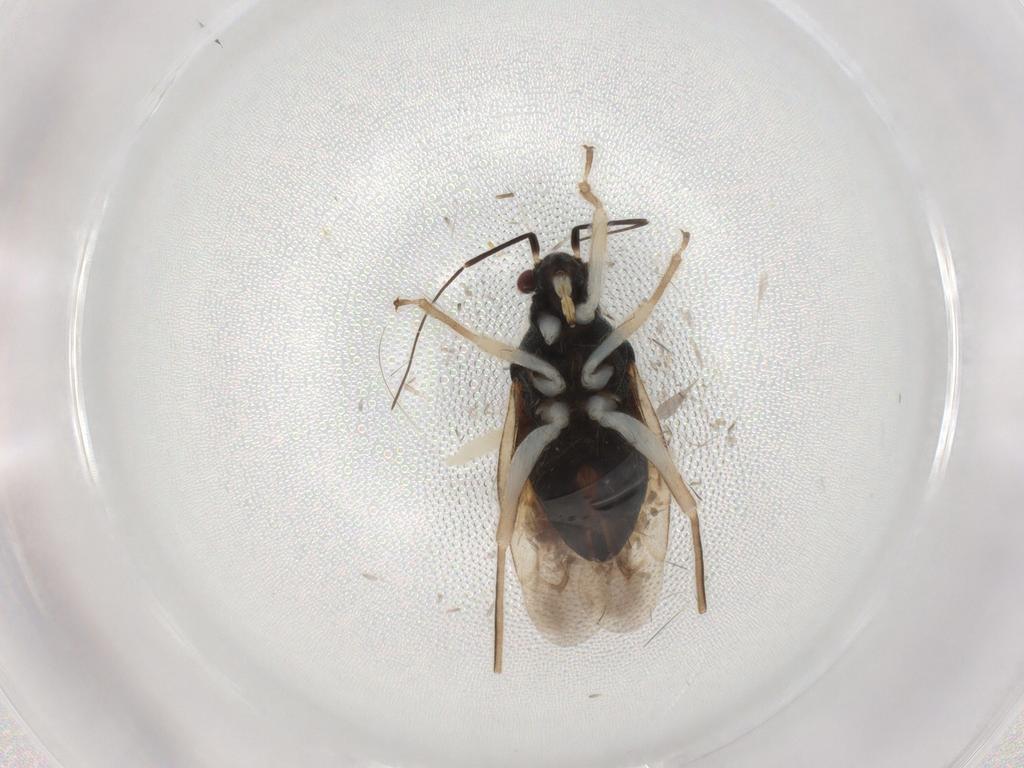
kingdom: Animalia
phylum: Arthropoda
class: Insecta
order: Hemiptera
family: Miridae
